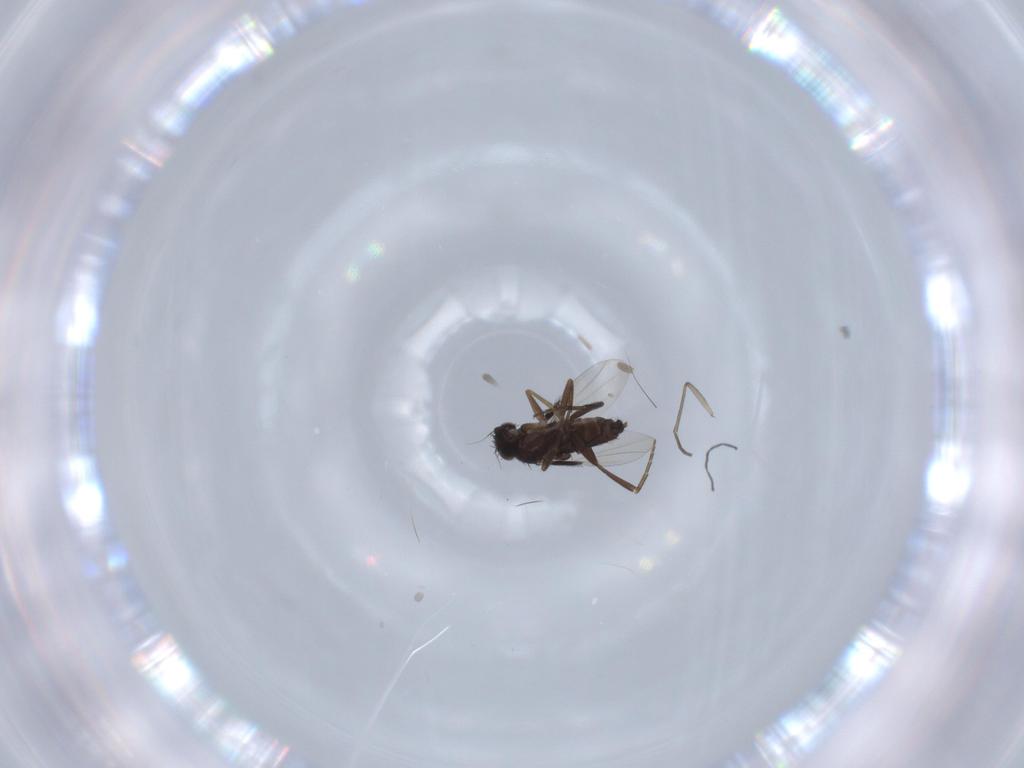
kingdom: Animalia
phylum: Arthropoda
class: Insecta
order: Diptera
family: Phoridae
